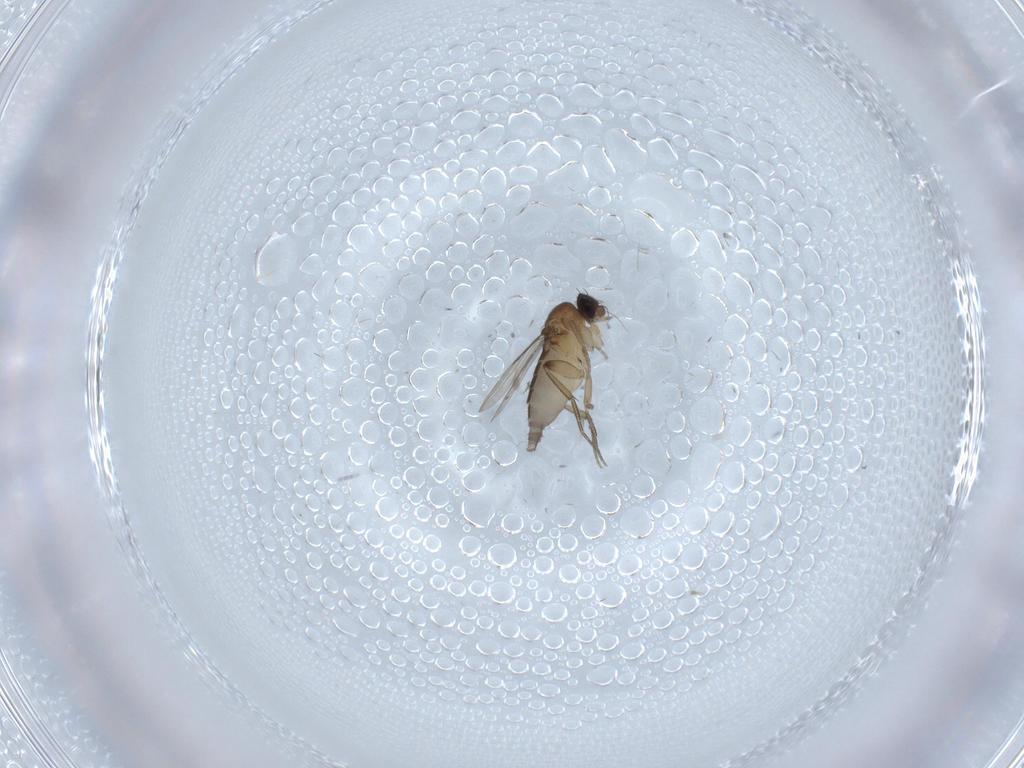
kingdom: Animalia
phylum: Arthropoda
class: Insecta
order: Diptera
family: Phoridae
